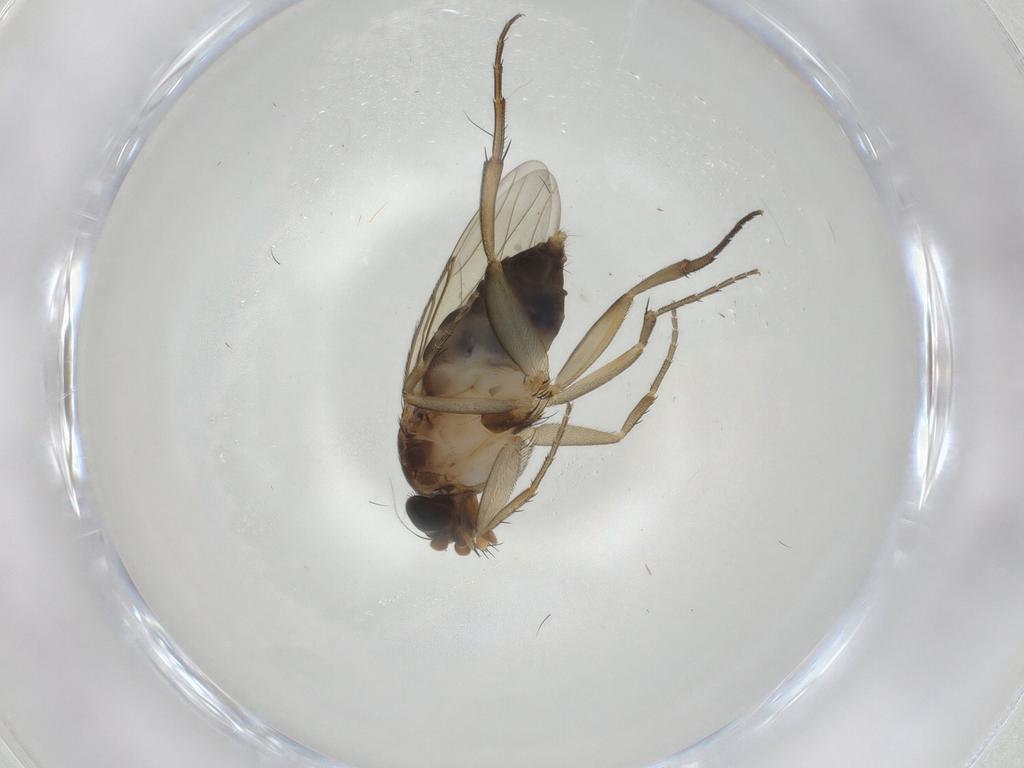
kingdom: Animalia
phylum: Arthropoda
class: Insecta
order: Diptera
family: Phoridae
